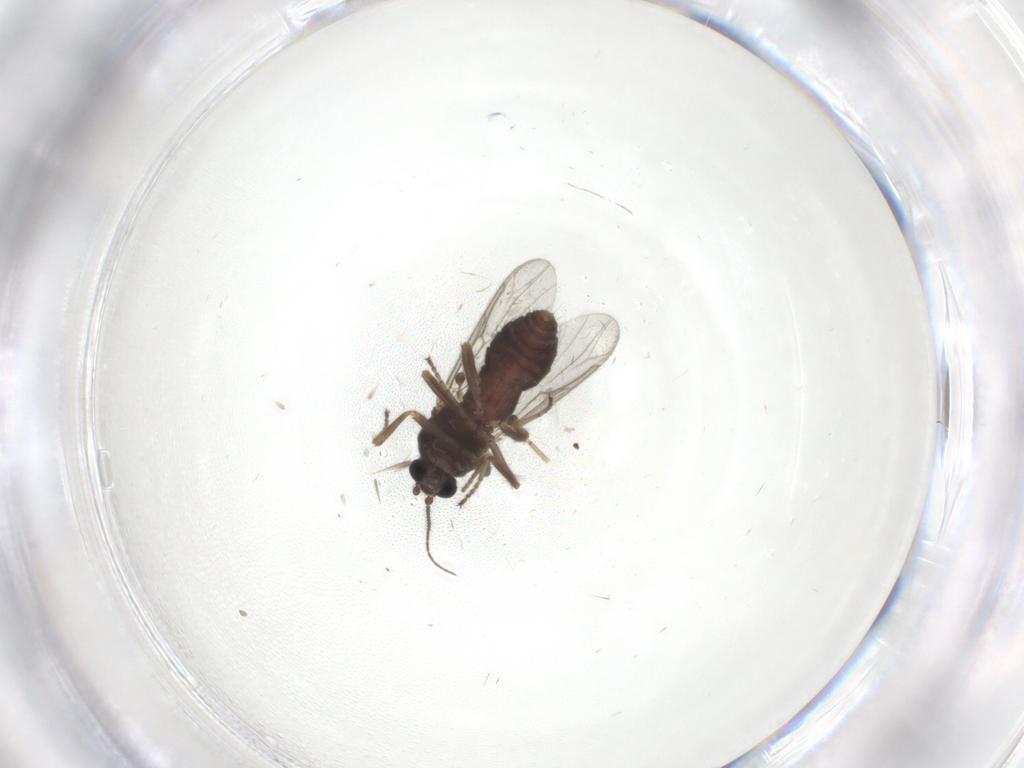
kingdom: Animalia
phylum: Arthropoda
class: Insecta
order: Diptera
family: Ceratopogonidae
